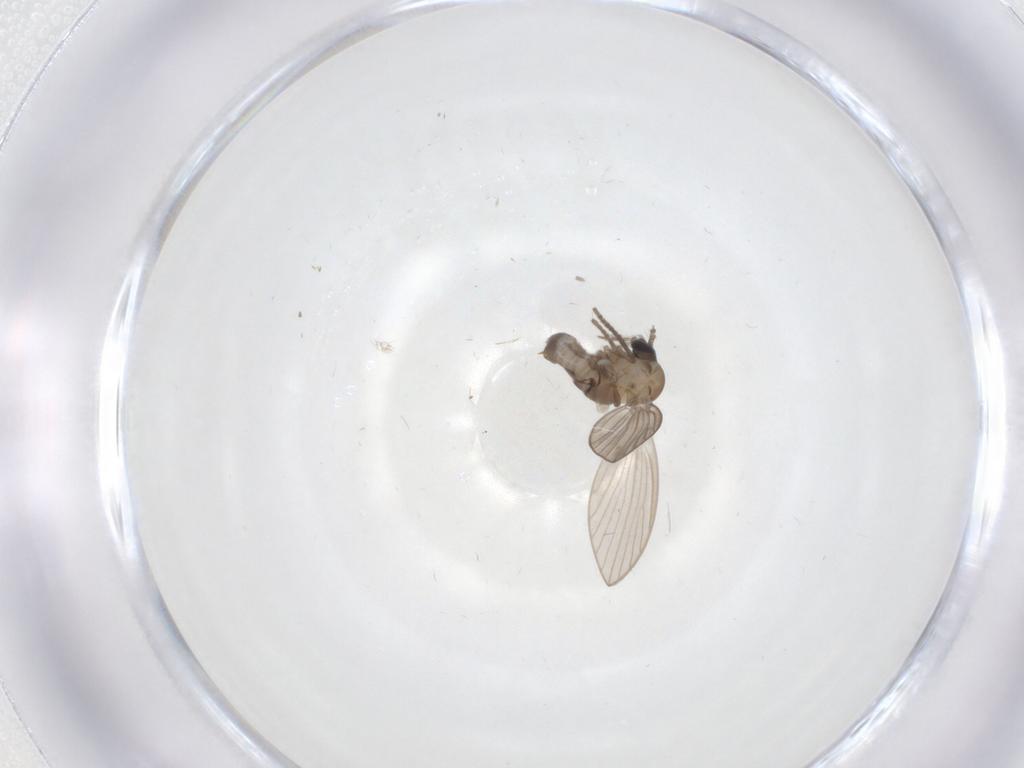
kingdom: Animalia
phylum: Arthropoda
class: Insecta
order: Diptera
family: Psychodidae
